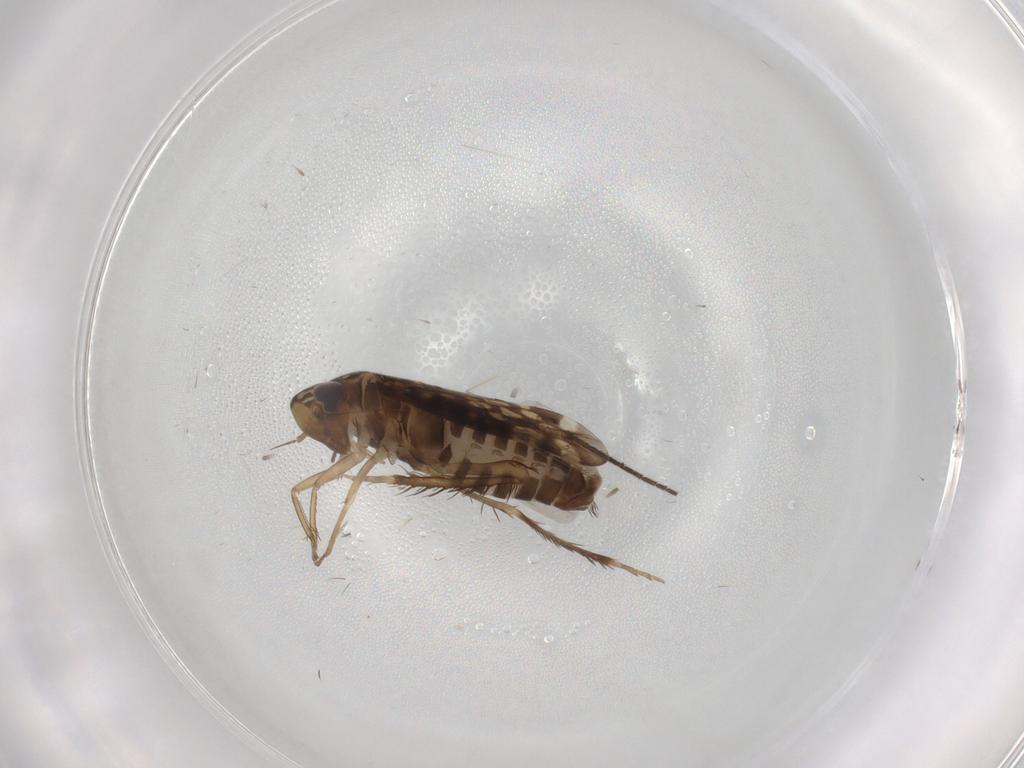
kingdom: Animalia
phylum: Arthropoda
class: Insecta
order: Hemiptera
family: Cicadellidae
